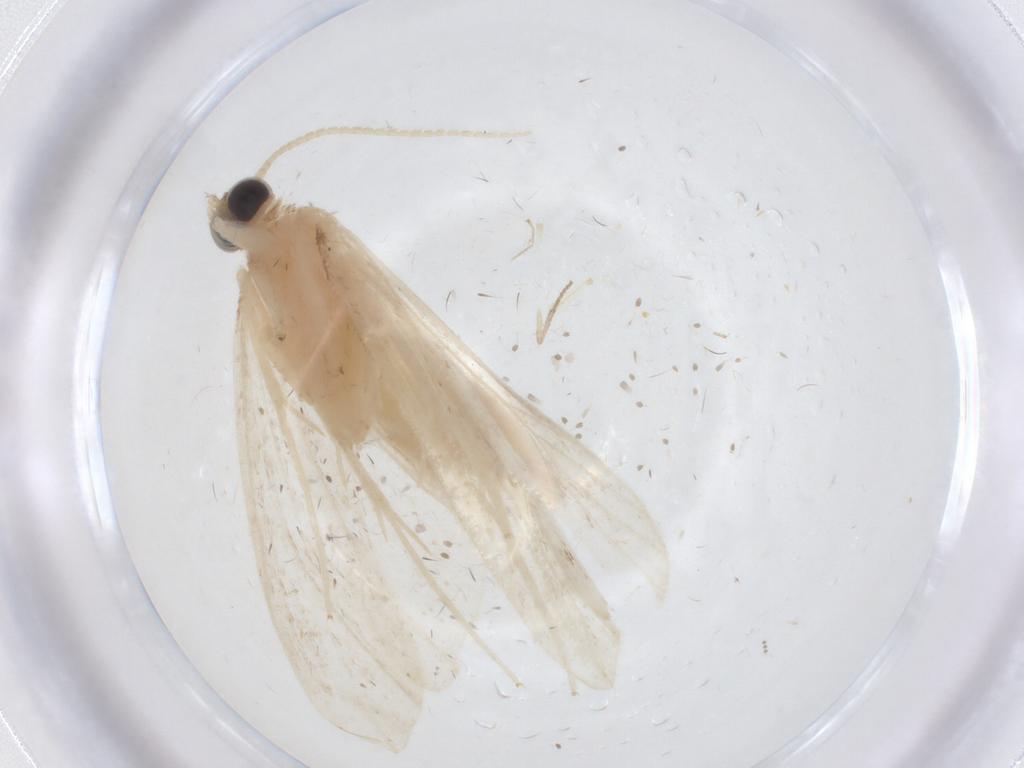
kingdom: Animalia
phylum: Arthropoda
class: Insecta
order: Lepidoptera
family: Crambidae
